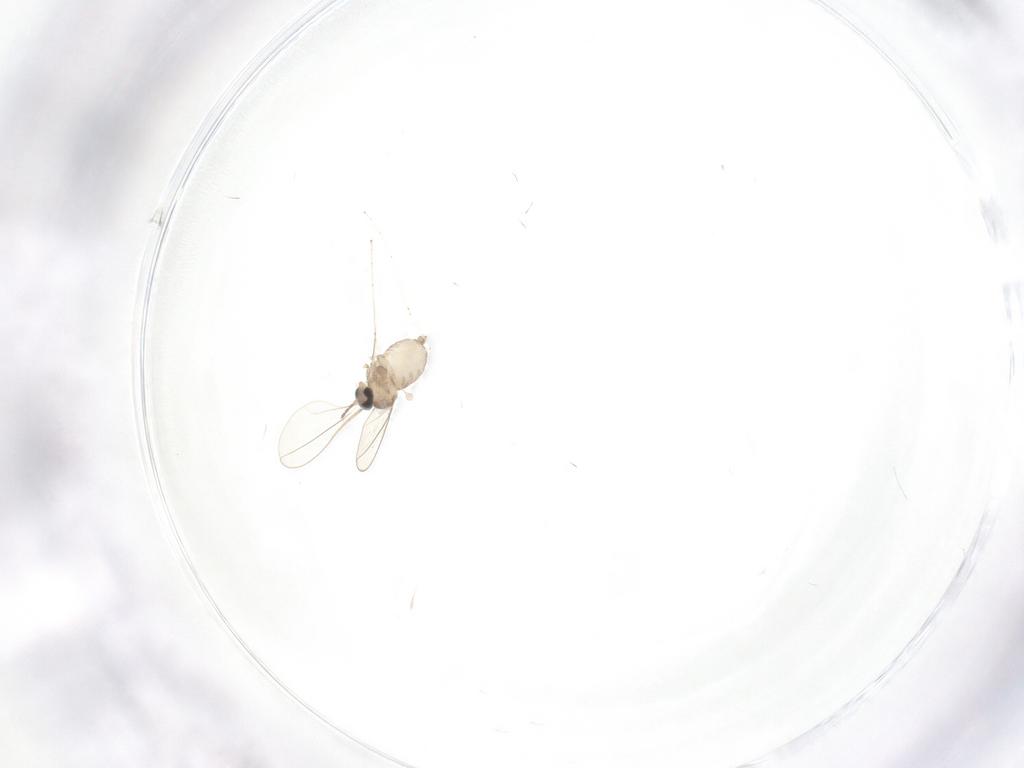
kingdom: Animalia
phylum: Arthropoda
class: Insecta
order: Diptera
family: Cecidomyiidae
